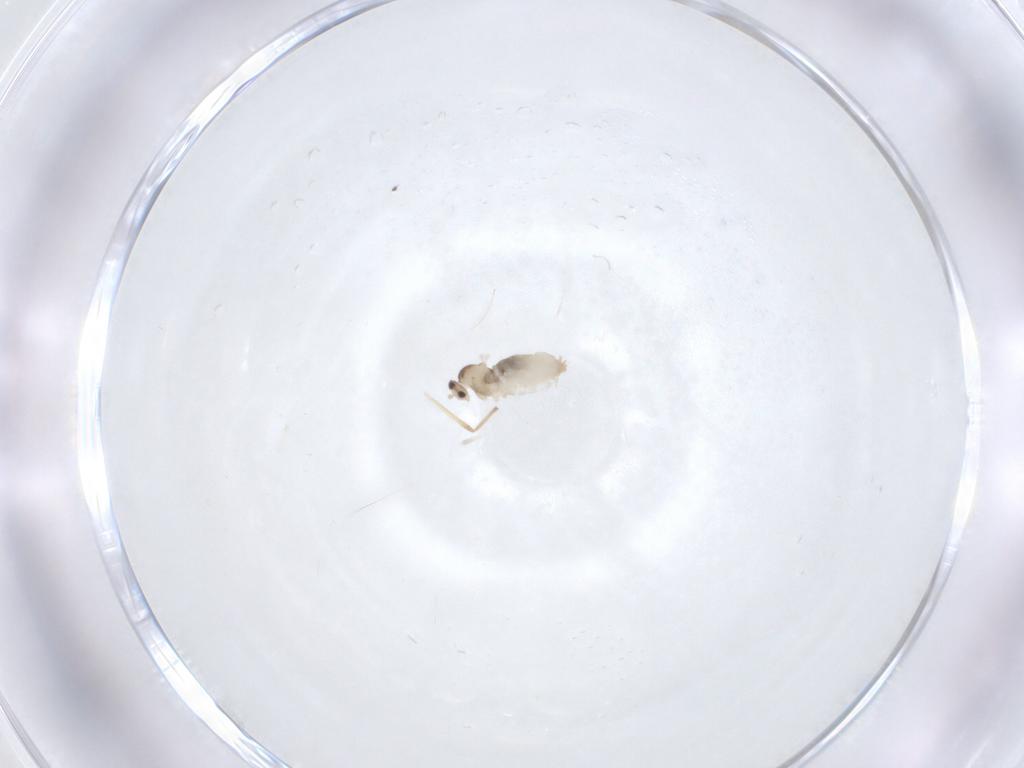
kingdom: Animalia
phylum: Arthropoda
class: Insecta
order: Diptera
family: Cecidomyiidae
